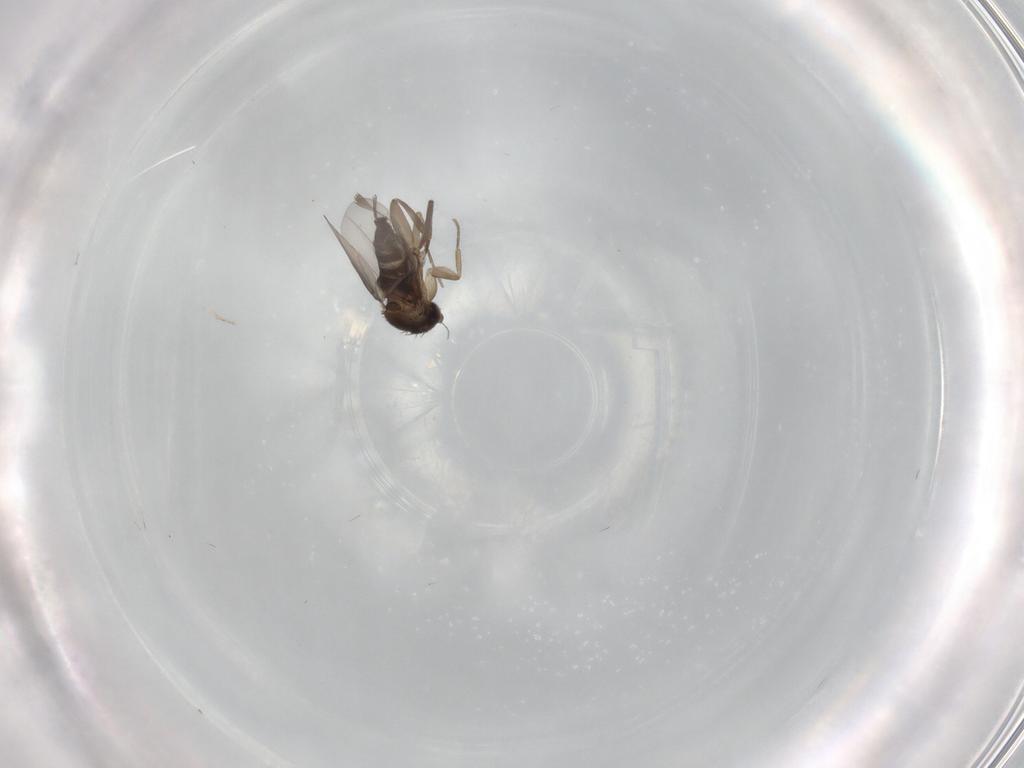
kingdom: Animalia
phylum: Arthropoda
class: Insecta
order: Diptera
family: Phoridae
